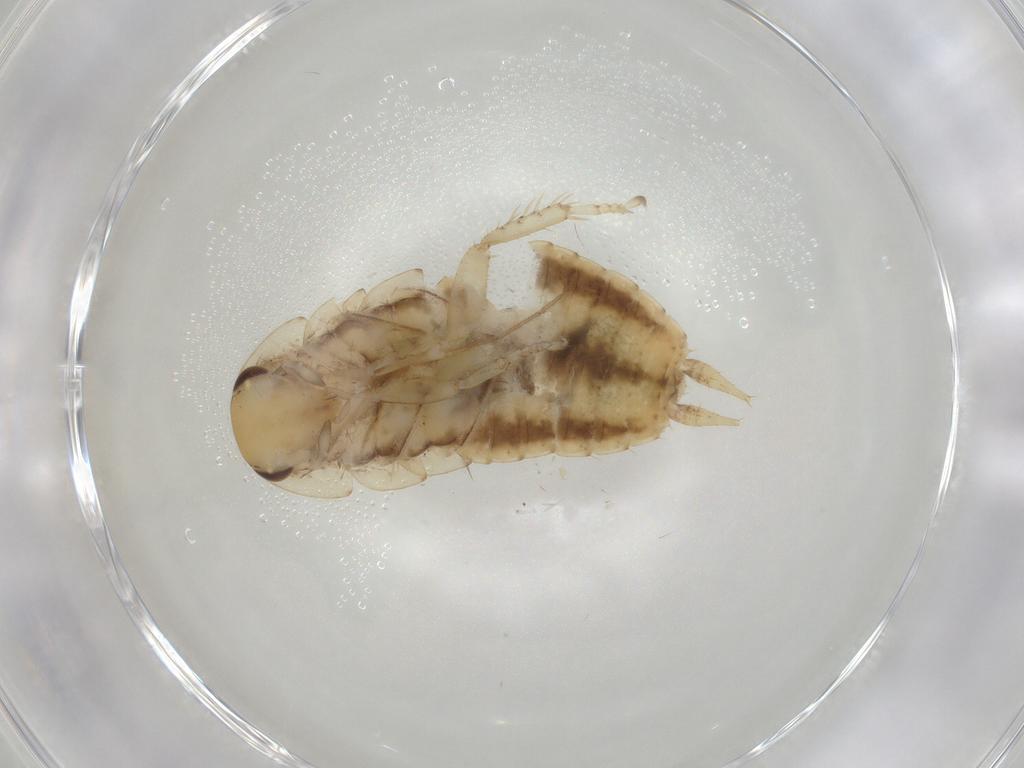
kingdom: Animalia
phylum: Arthropoda
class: Insecta
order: Blattodea
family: Blaberidae
